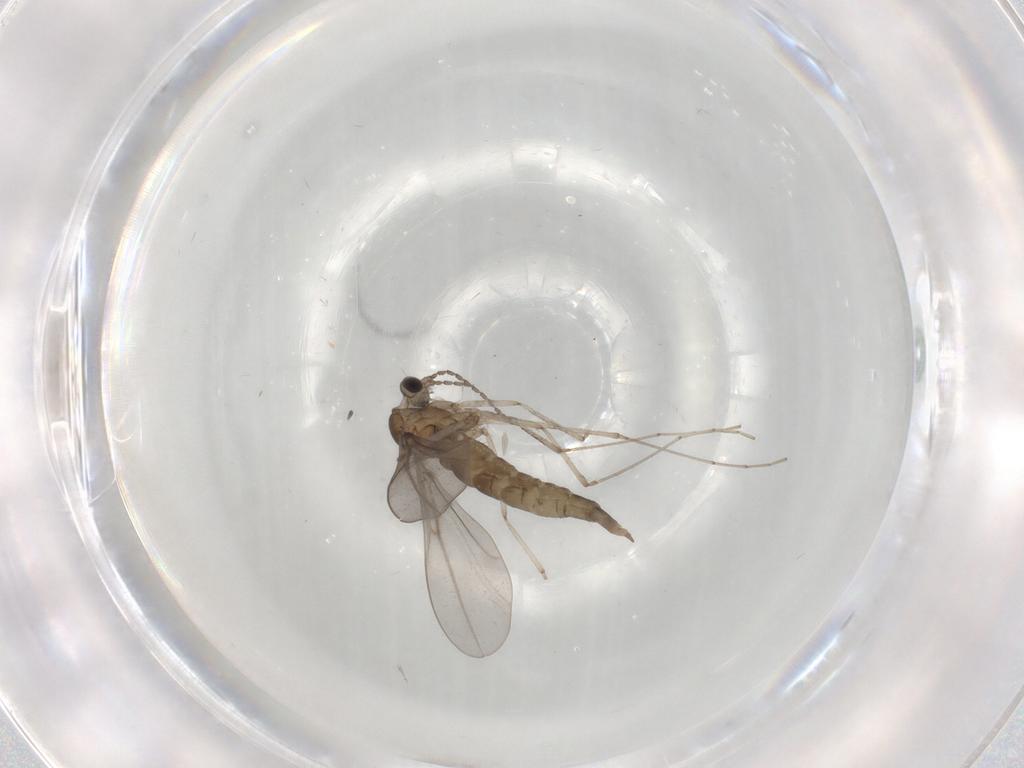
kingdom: Animalia
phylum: Arthropoda
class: Insecta
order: Diptera
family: Cecidomyiidae
